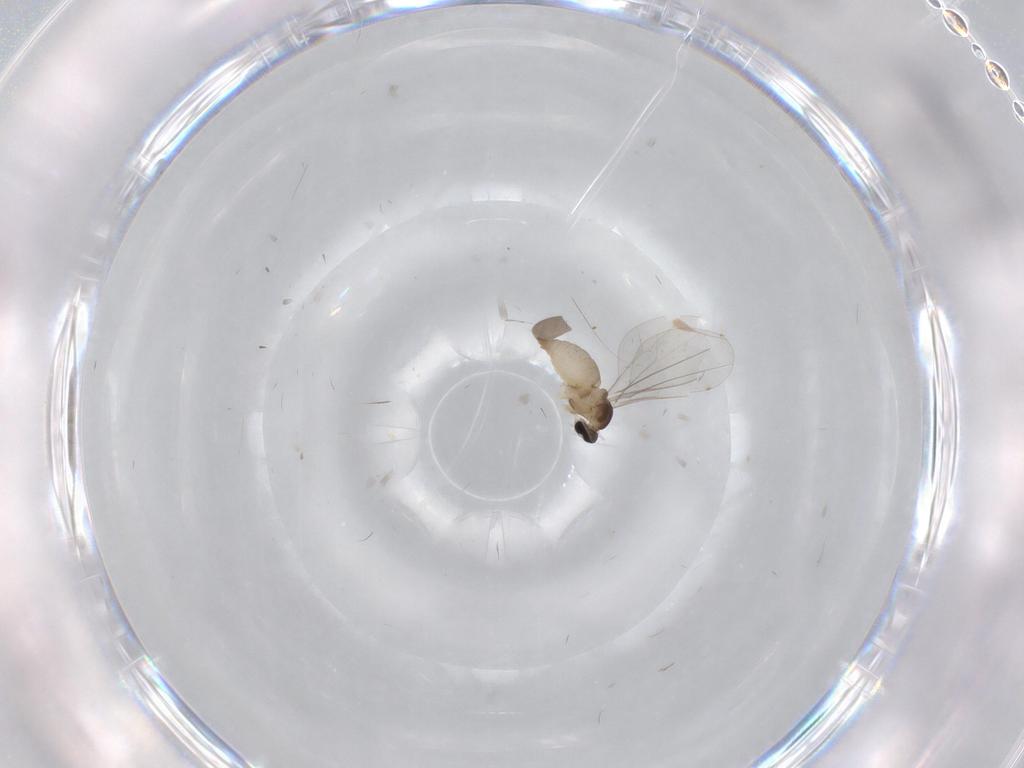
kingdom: Animalia
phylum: Arthropoda
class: Insecta
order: Diptera
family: Cecidomyiidae
